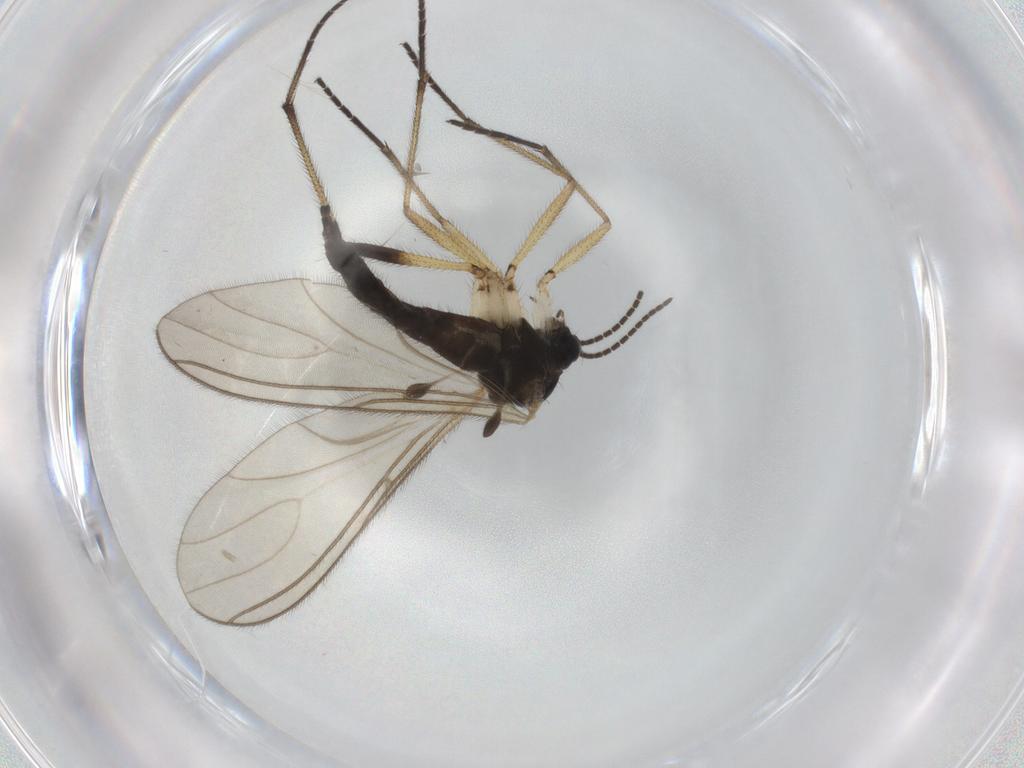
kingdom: Animalia
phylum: Arthropoda
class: Insecta
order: Diptera
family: Sciaridae
